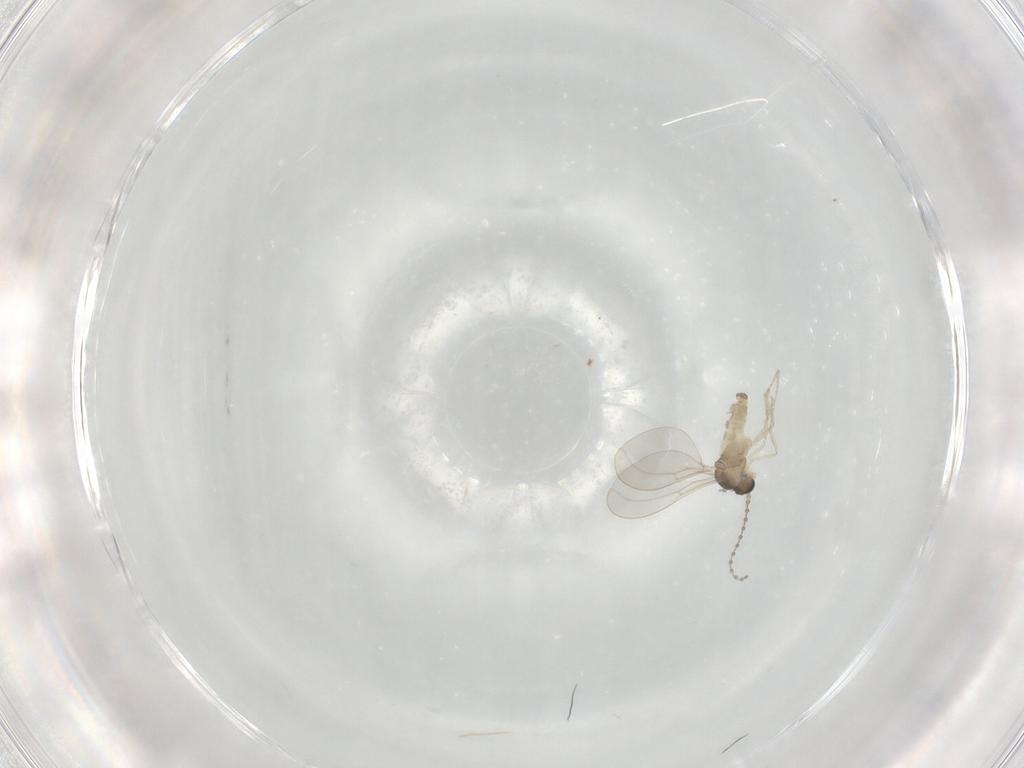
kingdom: Animalia
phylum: Arthropoda
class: Insecta
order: Diptera
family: Cecidomyiidae
